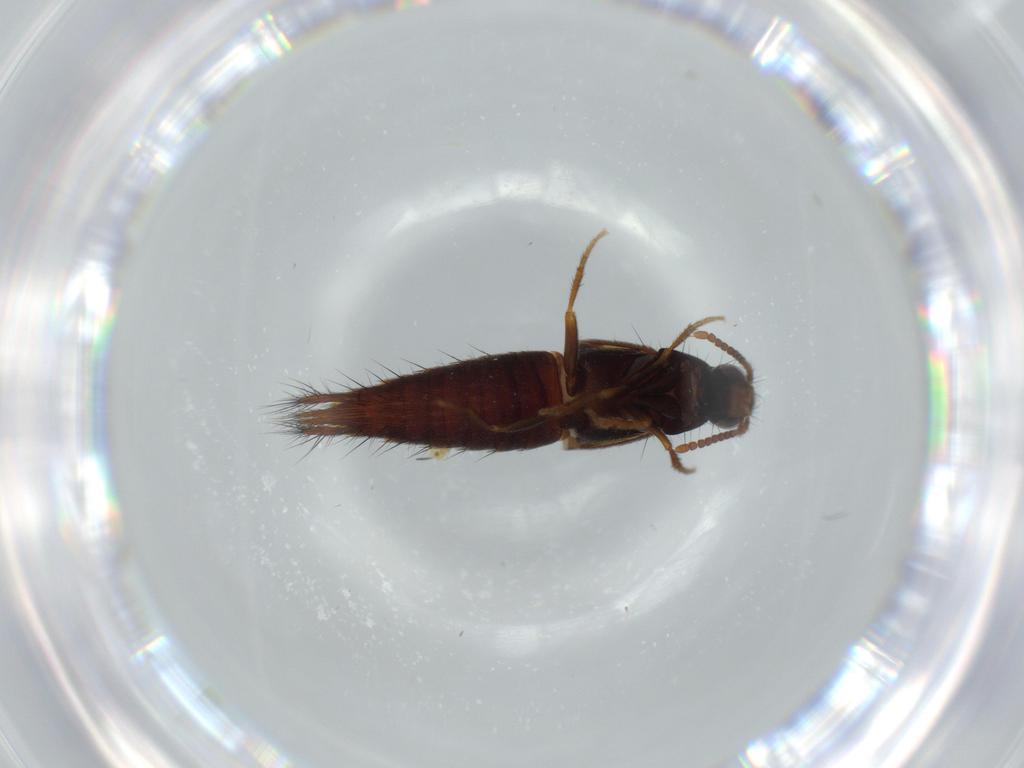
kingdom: Animalia
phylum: Arthropoda
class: Insecta
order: Coleoptera
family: Staphylinidae
